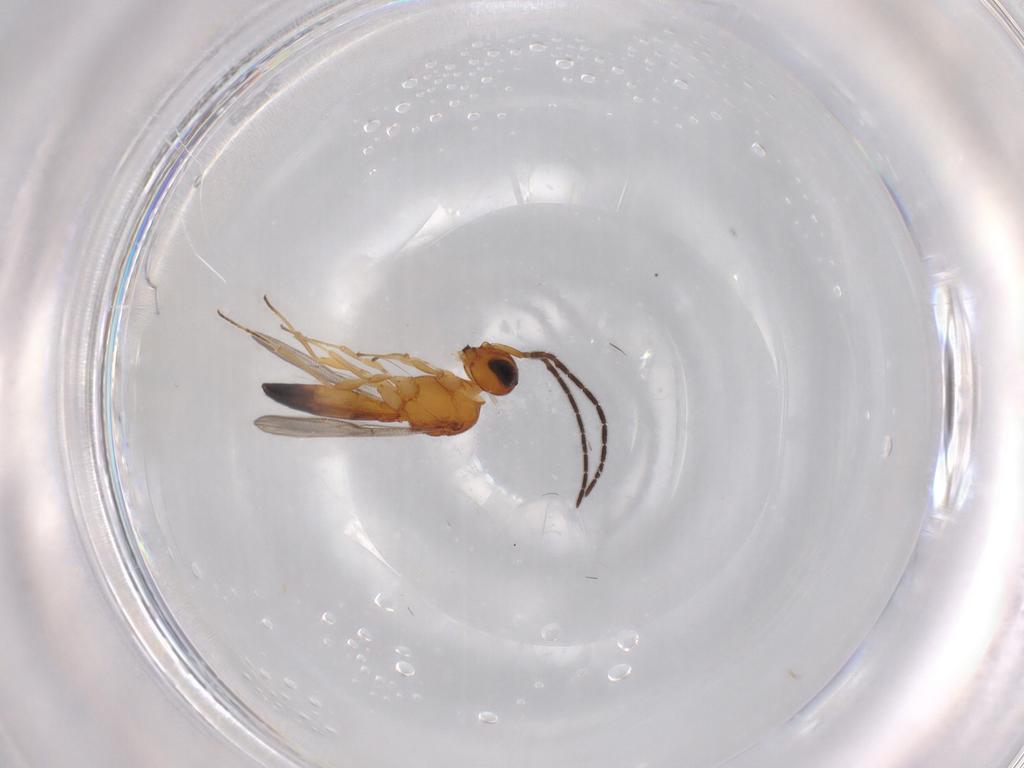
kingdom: Animalia
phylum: Arthropoda
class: Insecta
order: Hymenoptera
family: Scelionidae
